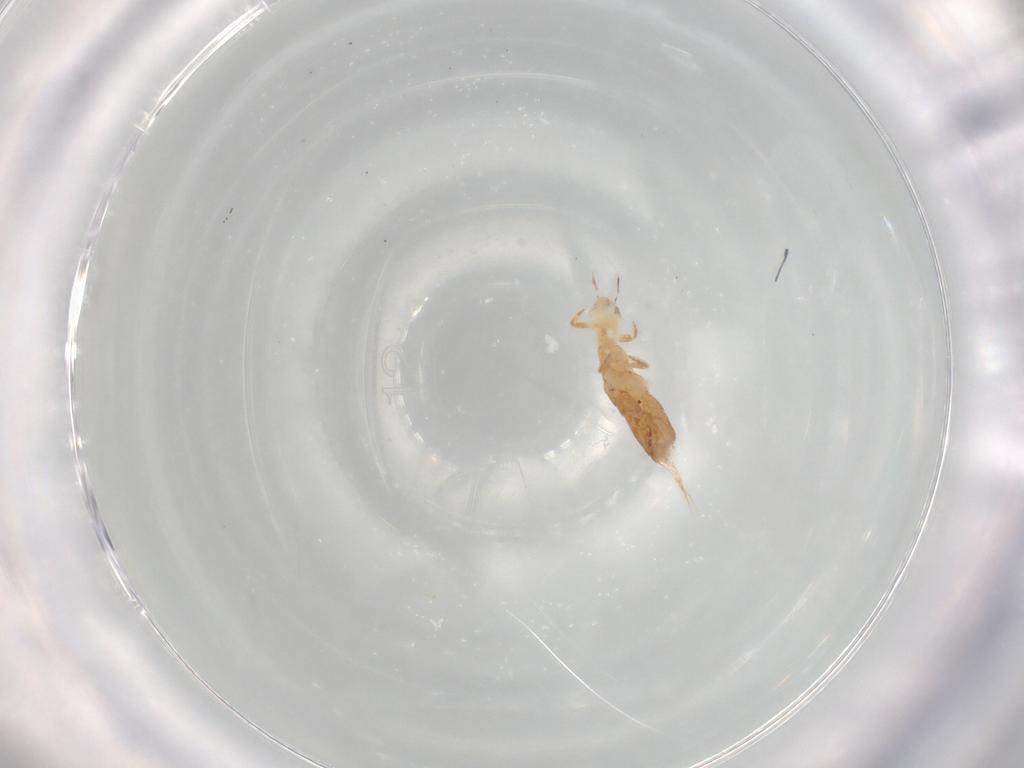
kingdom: Animalia
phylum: Arthropoda
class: Collembola
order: Entomobryomorpha
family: Entomobryidae
